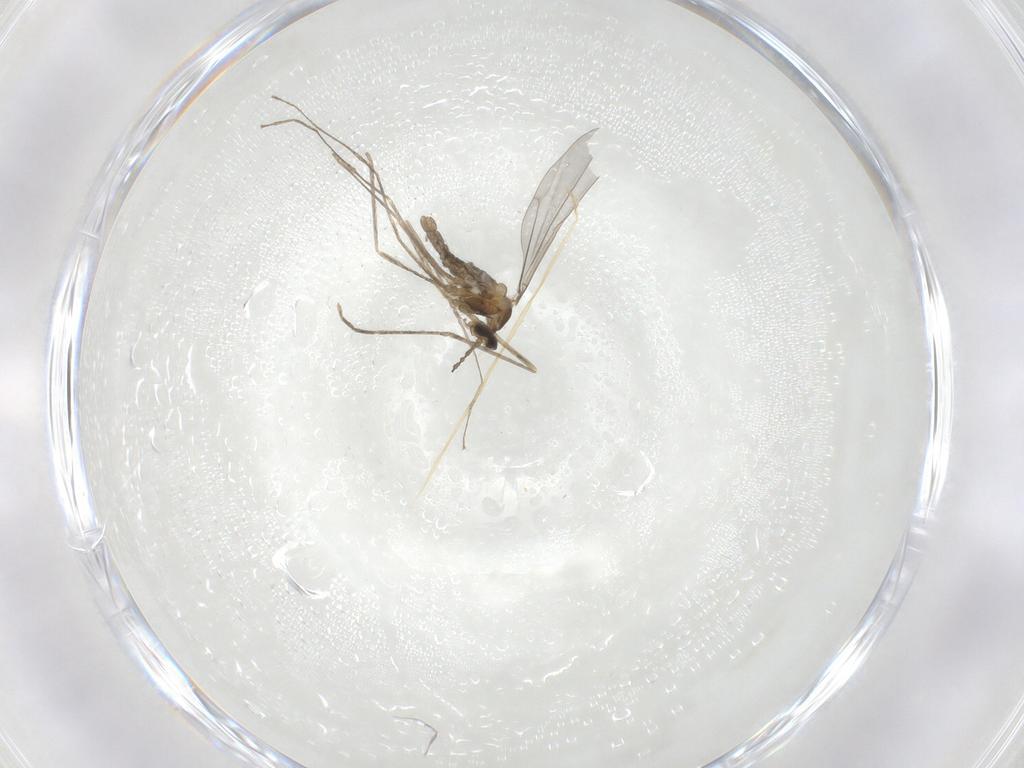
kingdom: Animalia
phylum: Arthropoda
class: Insecta
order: Diptera
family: Cecidomyiidae
